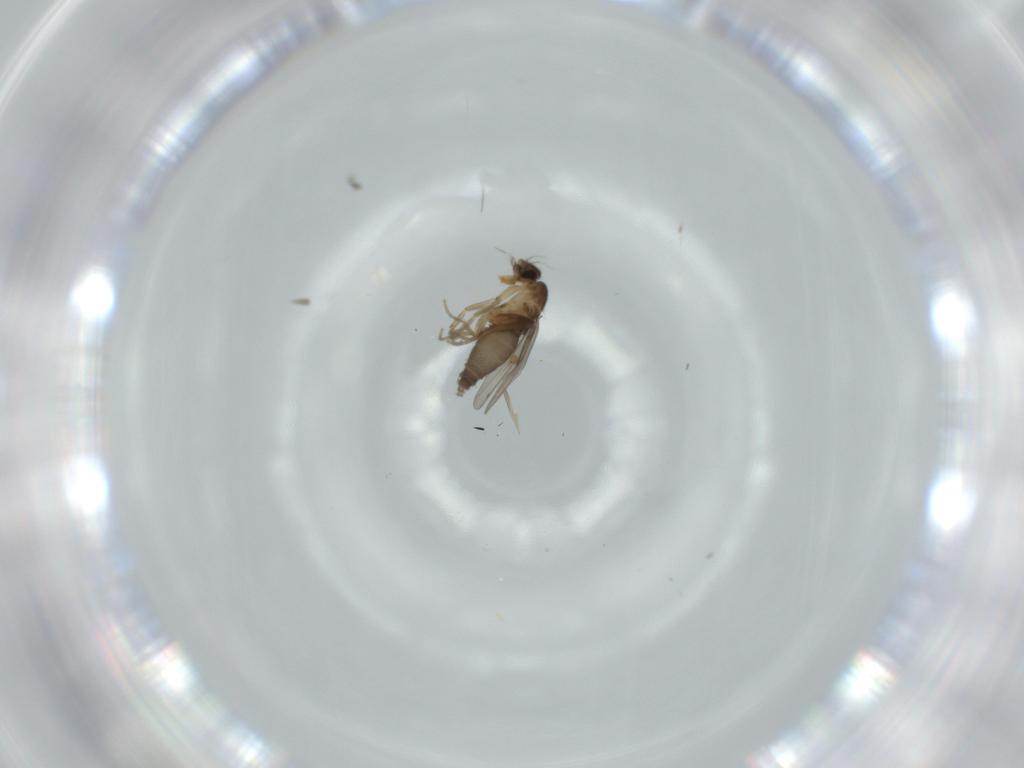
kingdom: Animalia
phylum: Arthropoda
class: Insecta
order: Diptera
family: Phoridae
